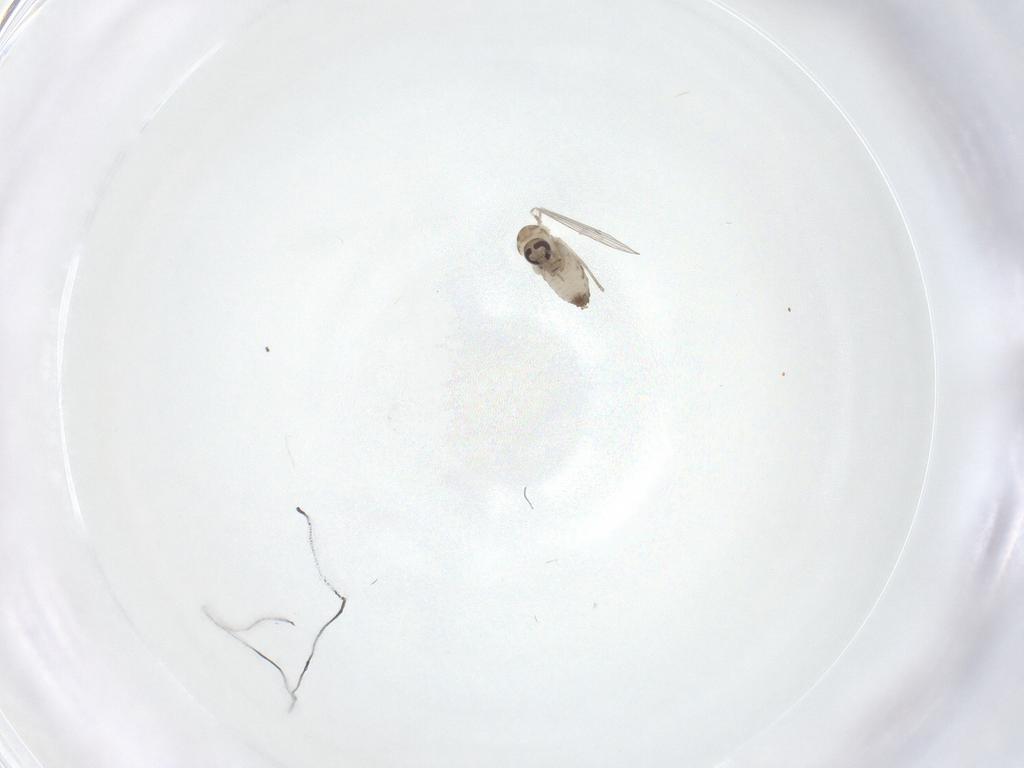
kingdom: Animalia
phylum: Arthropoda
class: Insecta
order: Diptera
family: Psychodidae
